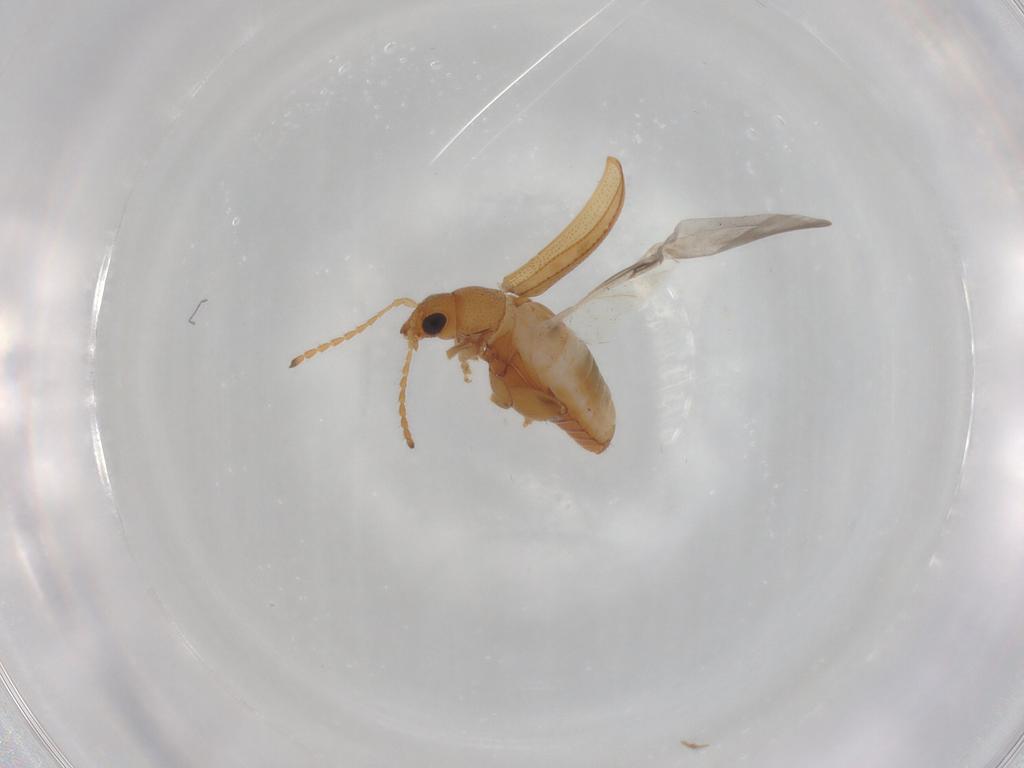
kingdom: Animalia
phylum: Arthropoda
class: Insecta
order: Coleoptera
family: Chrysomelidae
